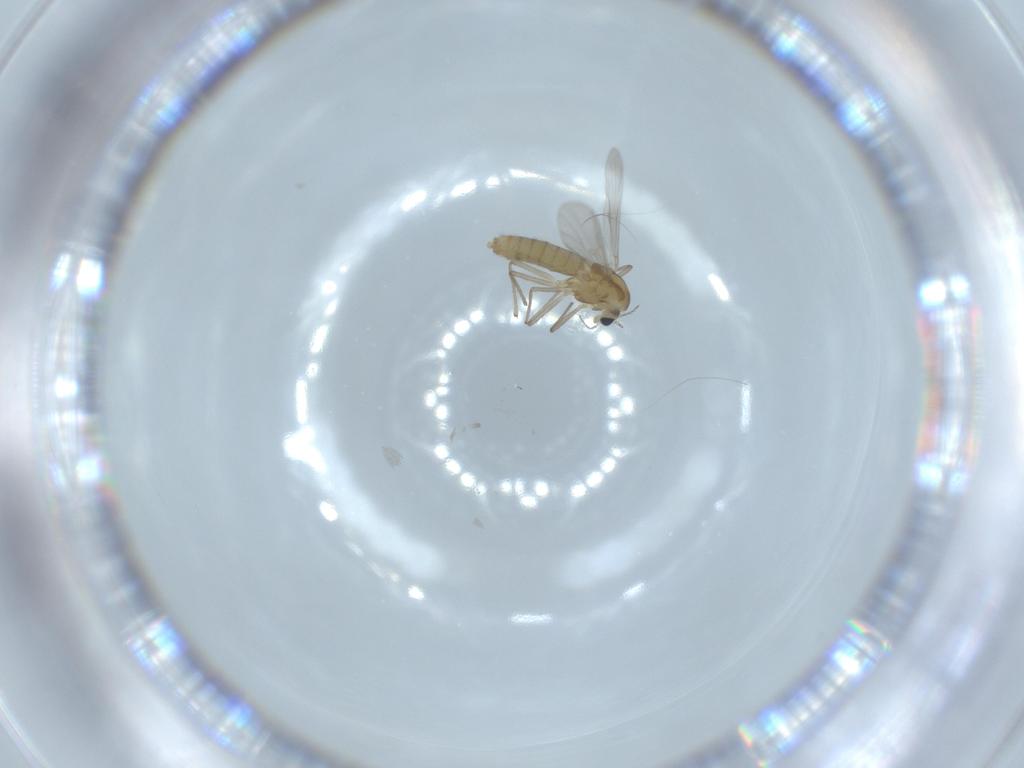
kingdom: Animalia
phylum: Arthropoda
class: Insecta
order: Diptera
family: Chironomidae
